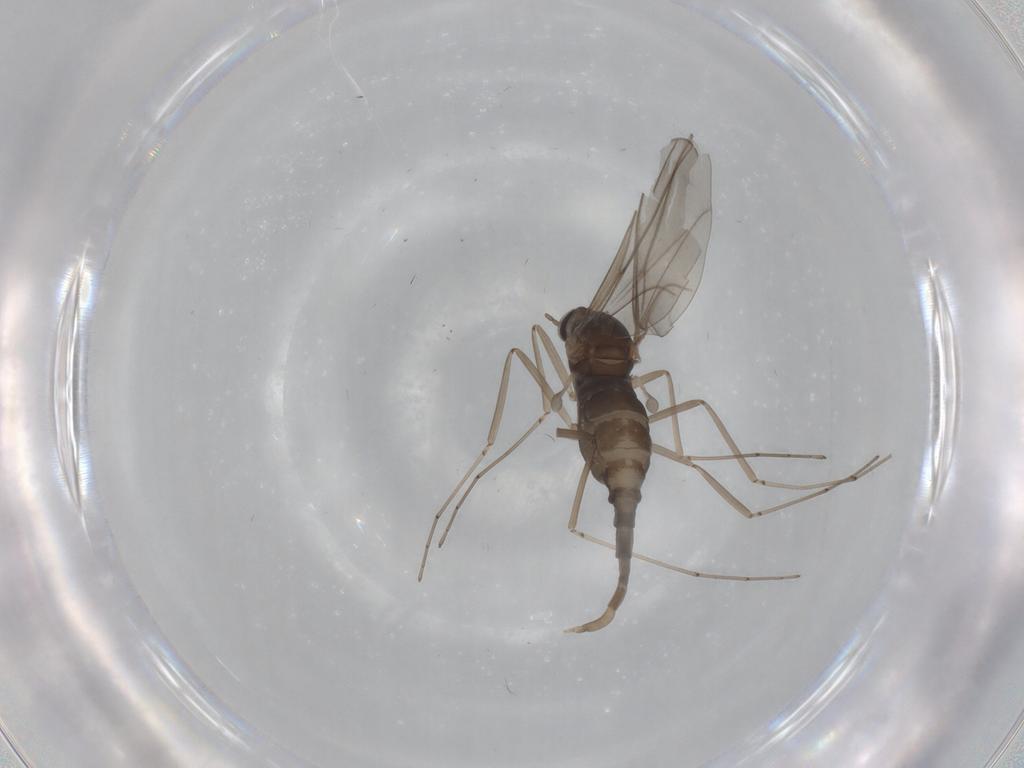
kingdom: Animalia
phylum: Arthropoda
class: Insecta
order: Diptera
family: Cecidomyiidae
